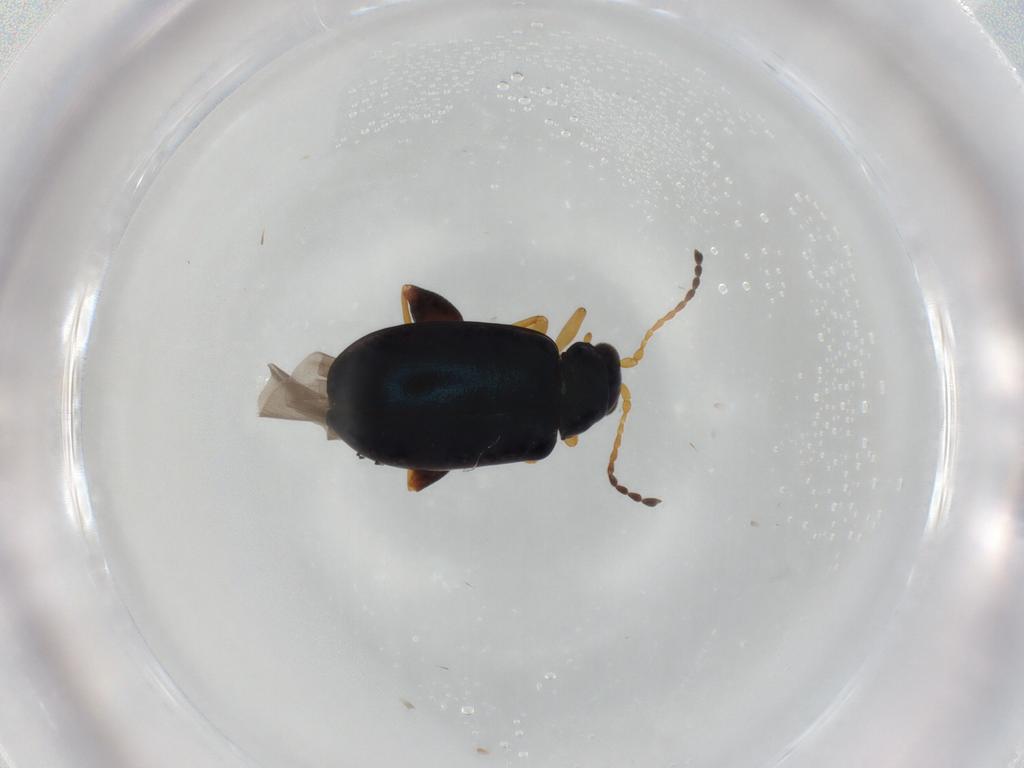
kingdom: Animalia
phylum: Arthropoda
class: Insecta
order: Coleoptera
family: Chrysomelidae
